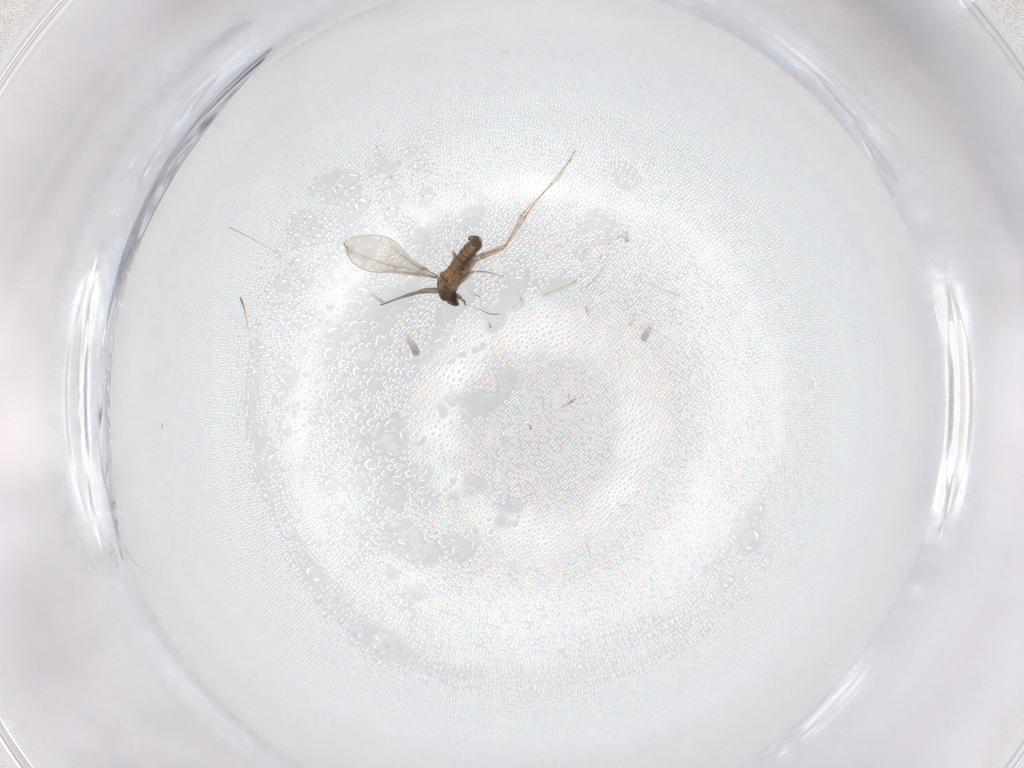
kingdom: Animalia
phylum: Arthropoda
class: Insecta
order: Diptera
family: Cecidomyiidae
